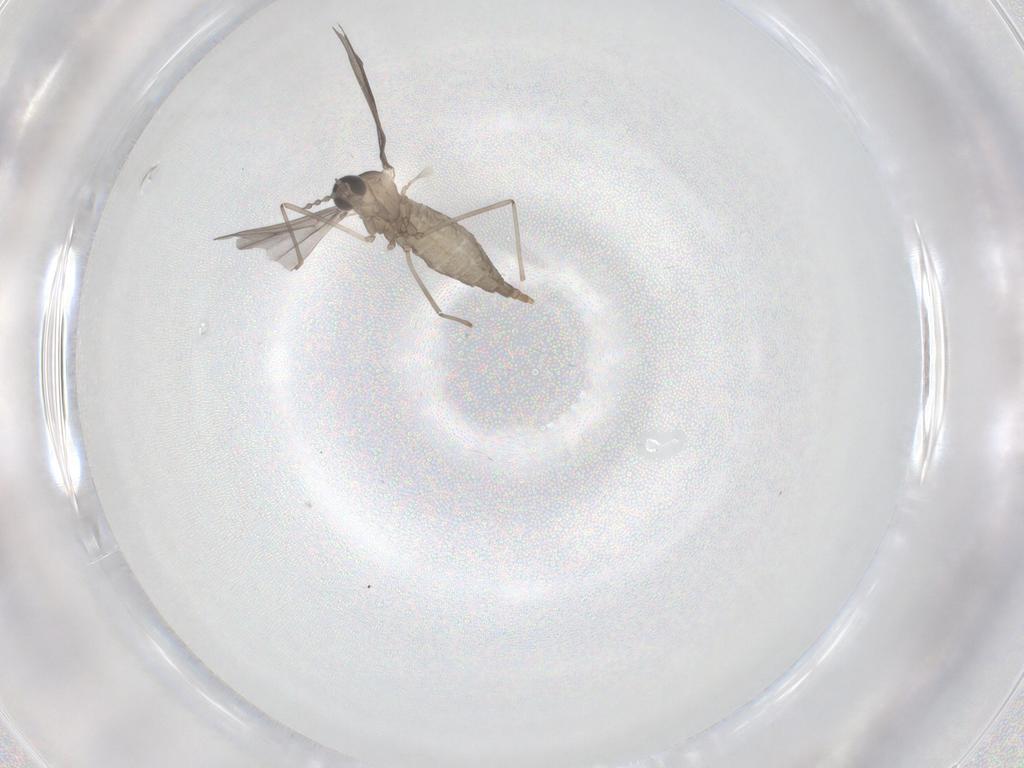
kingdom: Animalia
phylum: Arthropoda
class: Insecta
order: Diptera
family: Cecidomyiidae
